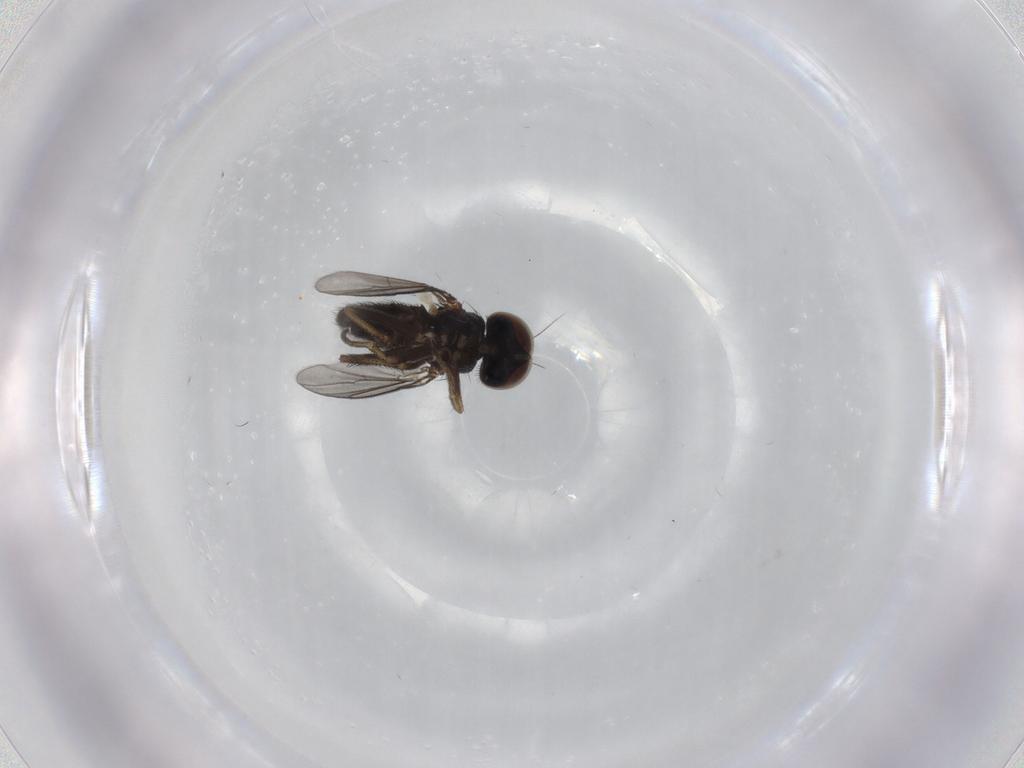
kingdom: Animalia
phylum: Arthropoda
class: Insecta
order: Diptera
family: Dolichopodidae
